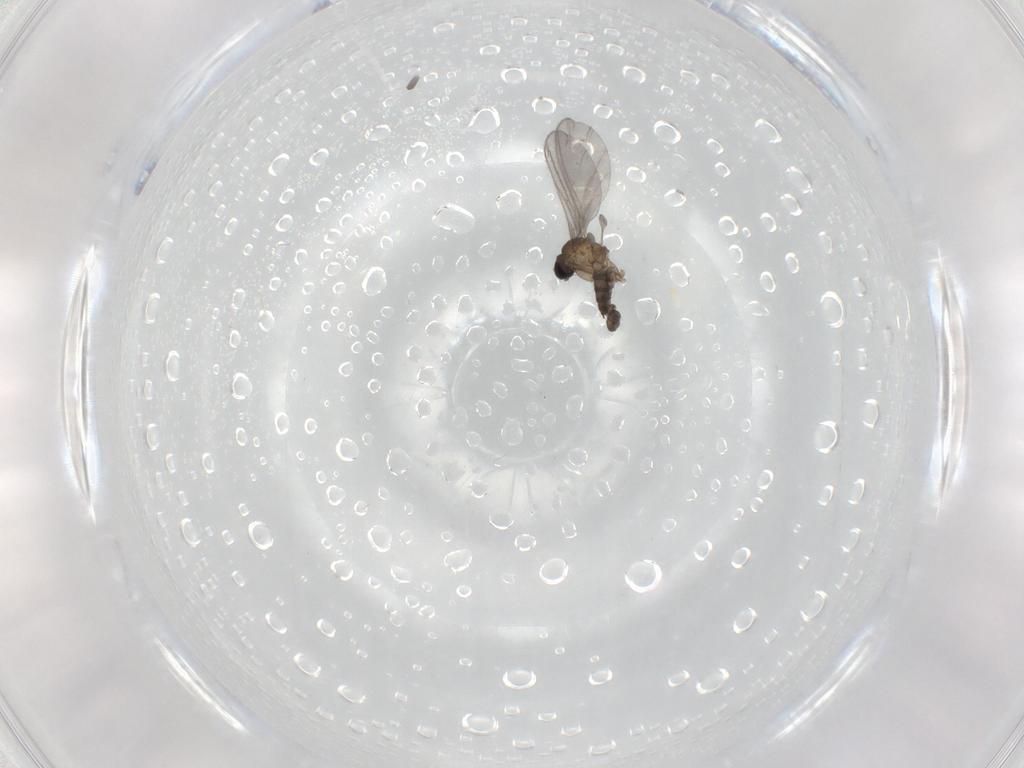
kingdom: Animalia
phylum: Arthropoda
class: Insecta
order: Diptera
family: Sciaridae
